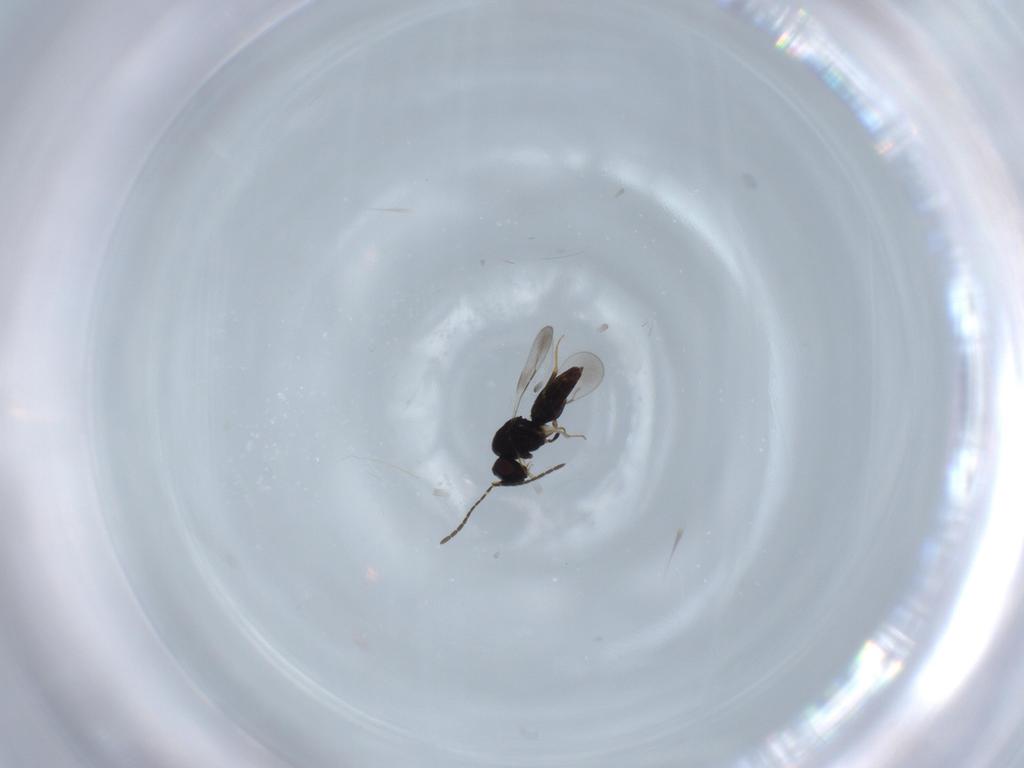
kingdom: Animalia
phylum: Arthropoda
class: Insecta
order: Hymenoptera
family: Ceraphronidae
